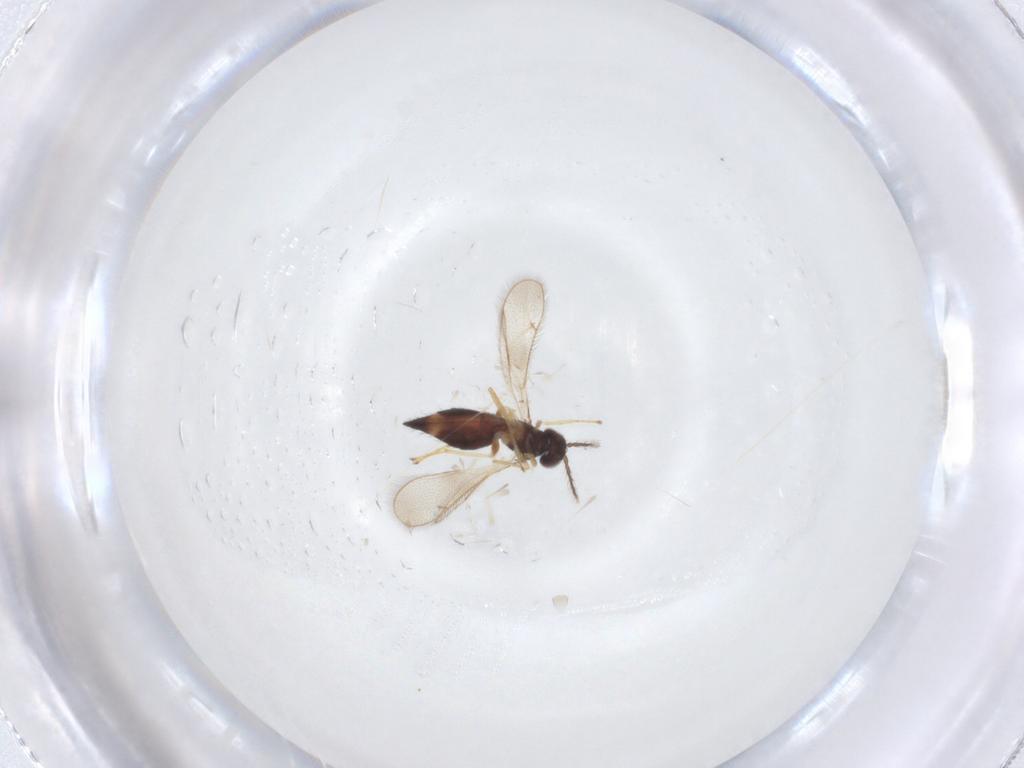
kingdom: Animalia
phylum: Arthropoda
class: Insecta
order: Hymenoptera
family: Eulophidae
